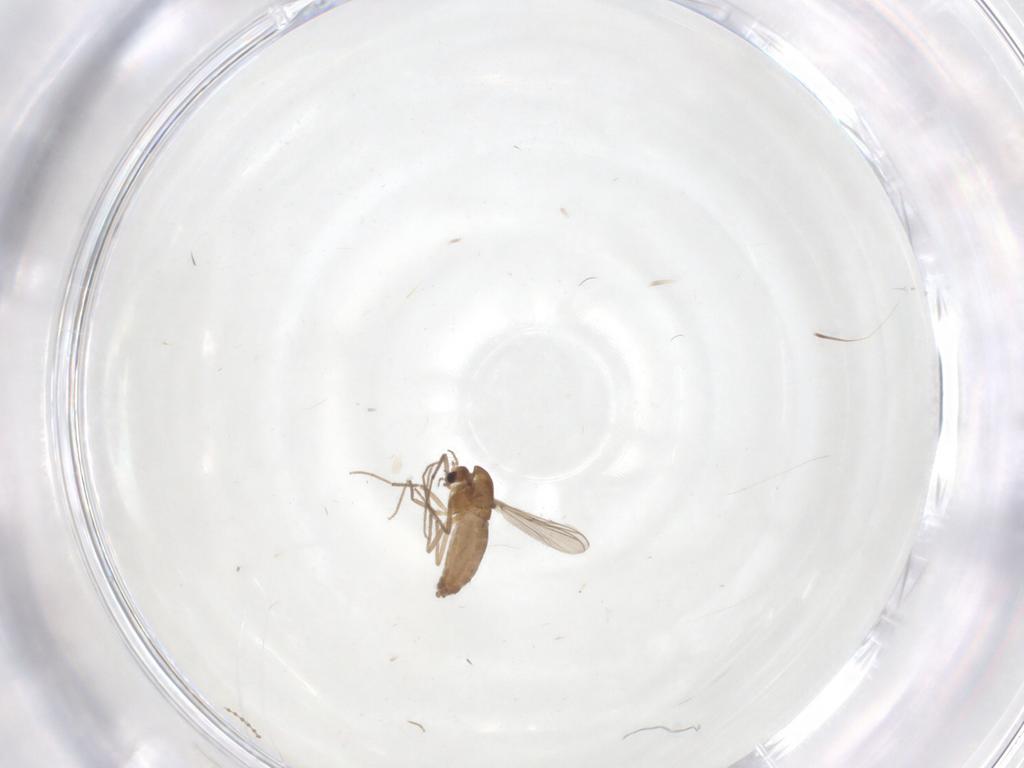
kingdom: Animalia
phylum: Arthropoda
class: Insecta
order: Diptera
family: Cecidomyiidae
